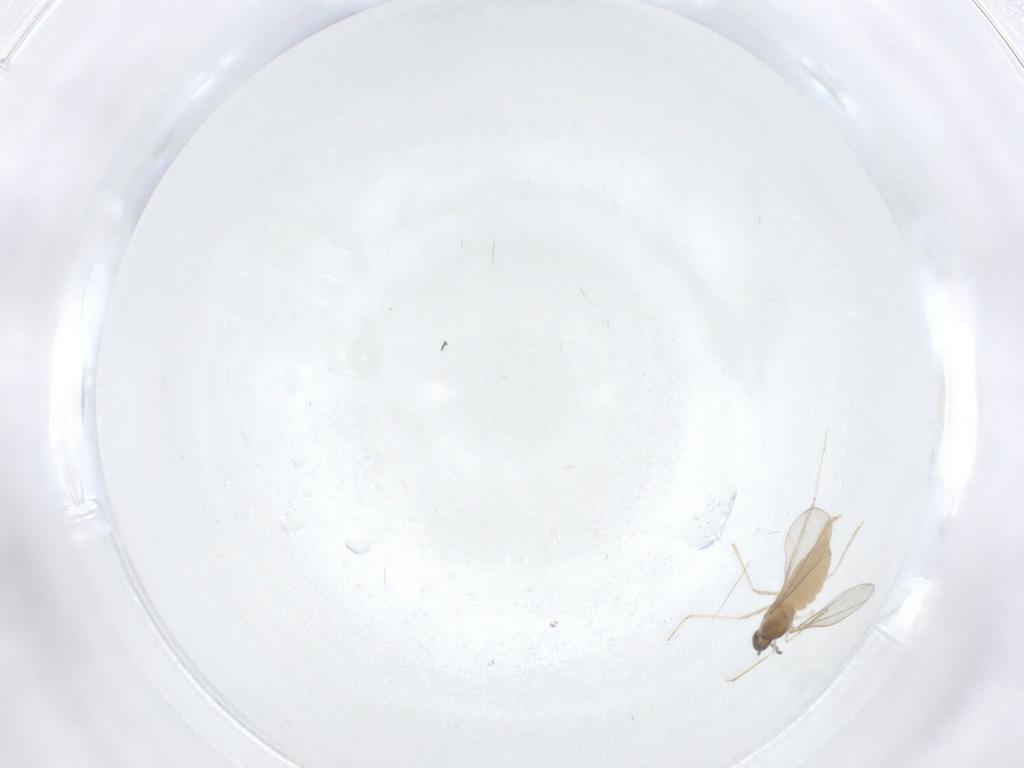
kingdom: Animalia
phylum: Arthropoda
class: Insecta
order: Diptera
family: Cecidomyiidae
